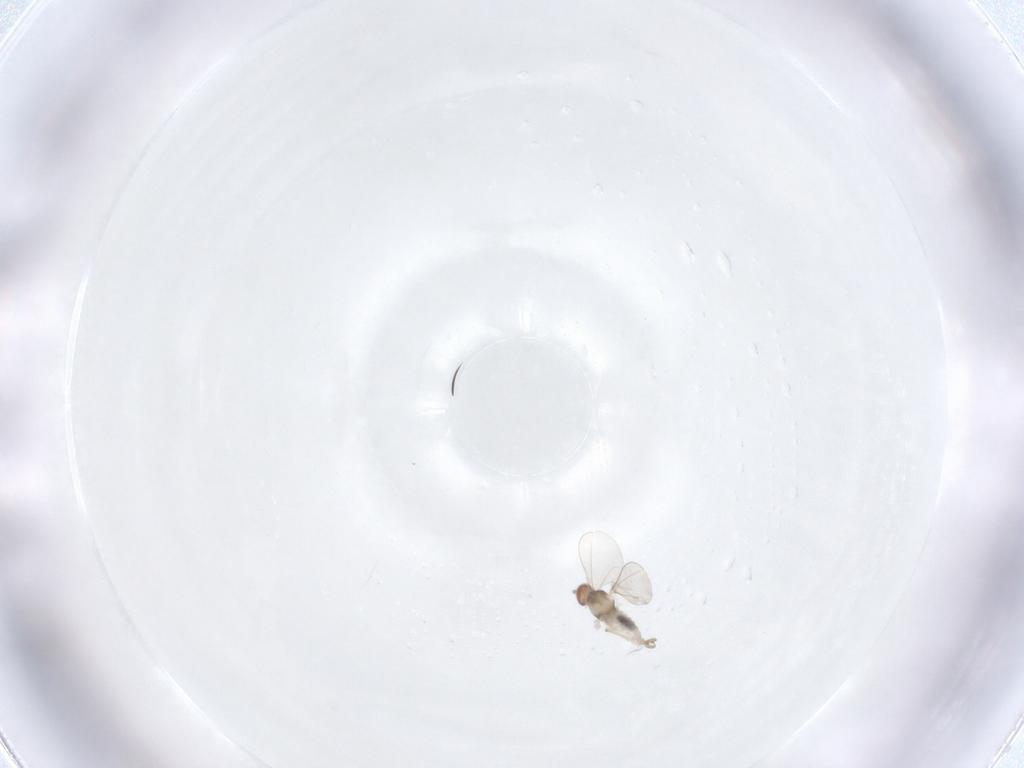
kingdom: Animalia
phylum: Arthropoda
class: Insecta
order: Diptera
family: Cecidomyiidae
